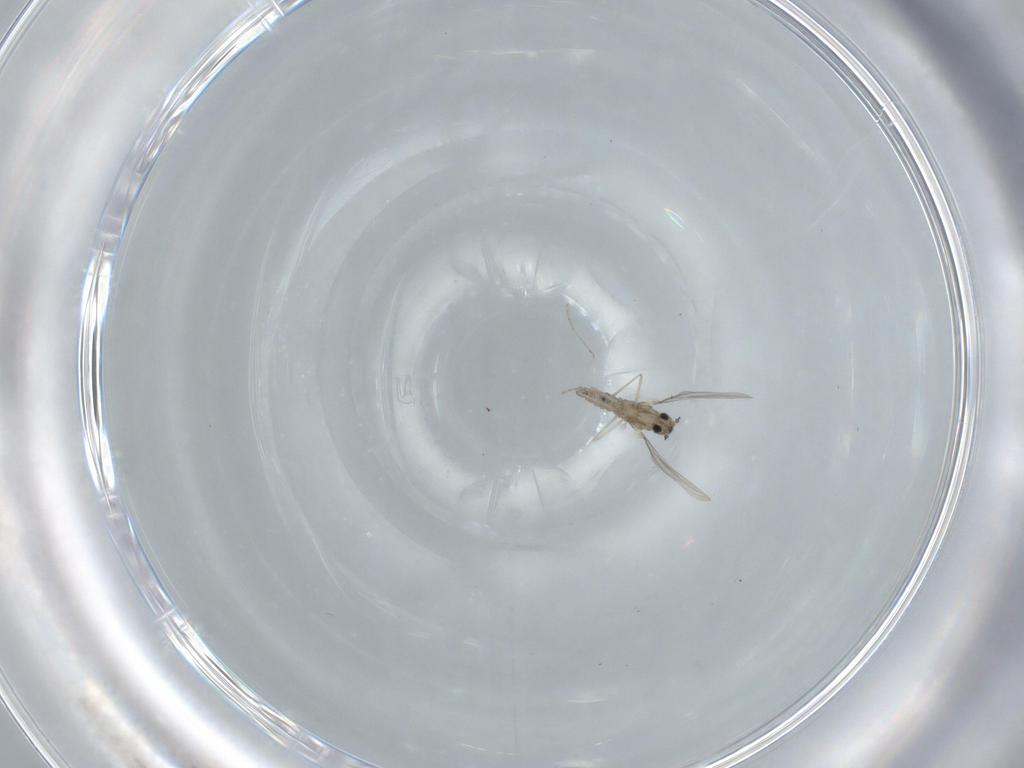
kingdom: Animalia
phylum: Arthropoda
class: Insecta
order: Diptera
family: Cecidomyiidae
